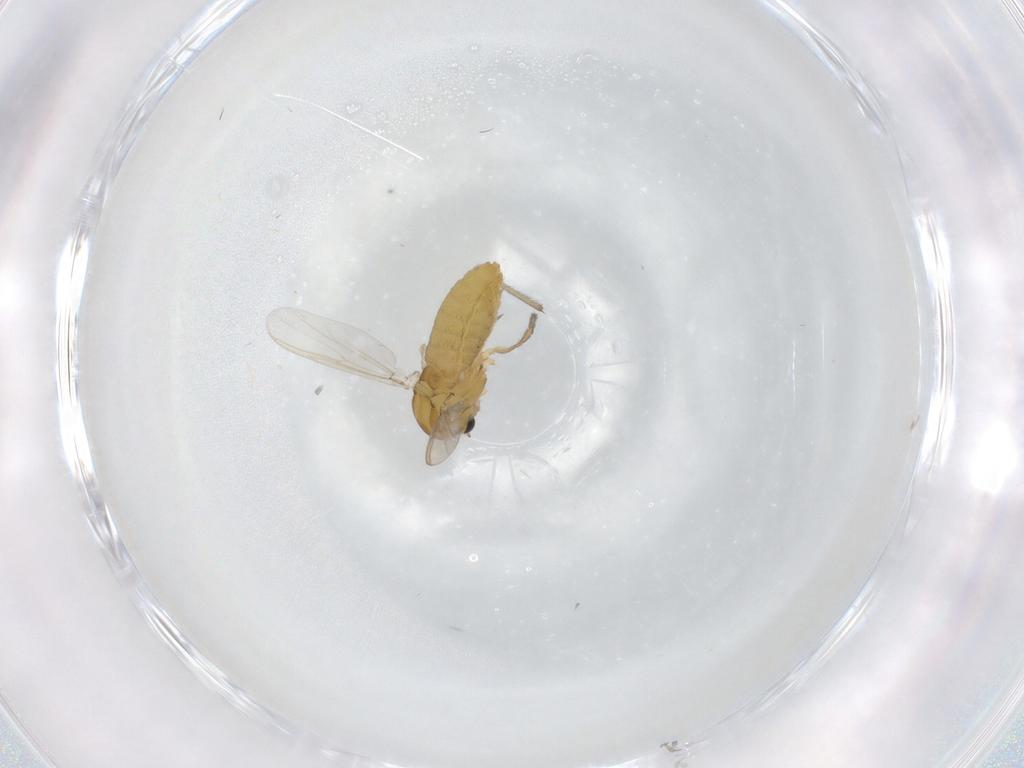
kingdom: Animalia
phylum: Arthropoda
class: Insecta
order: Diptera
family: Chironomidae
